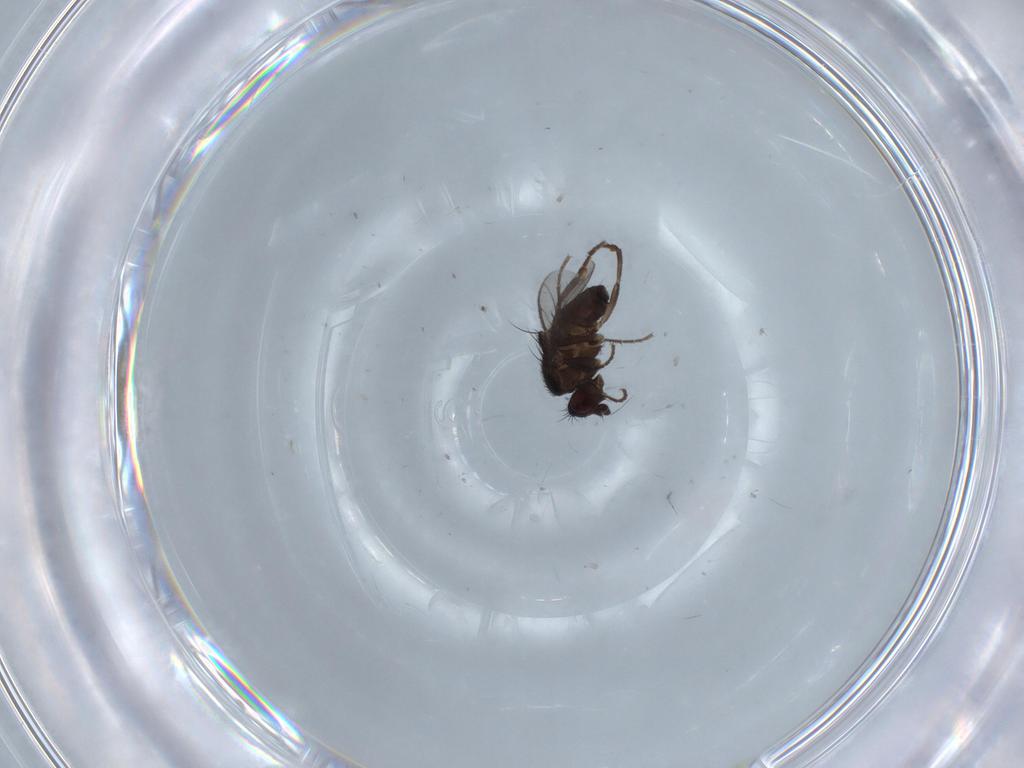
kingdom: Animalia
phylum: Arthropoda
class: Insecta
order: Diptera
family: Sphaeroceridae
